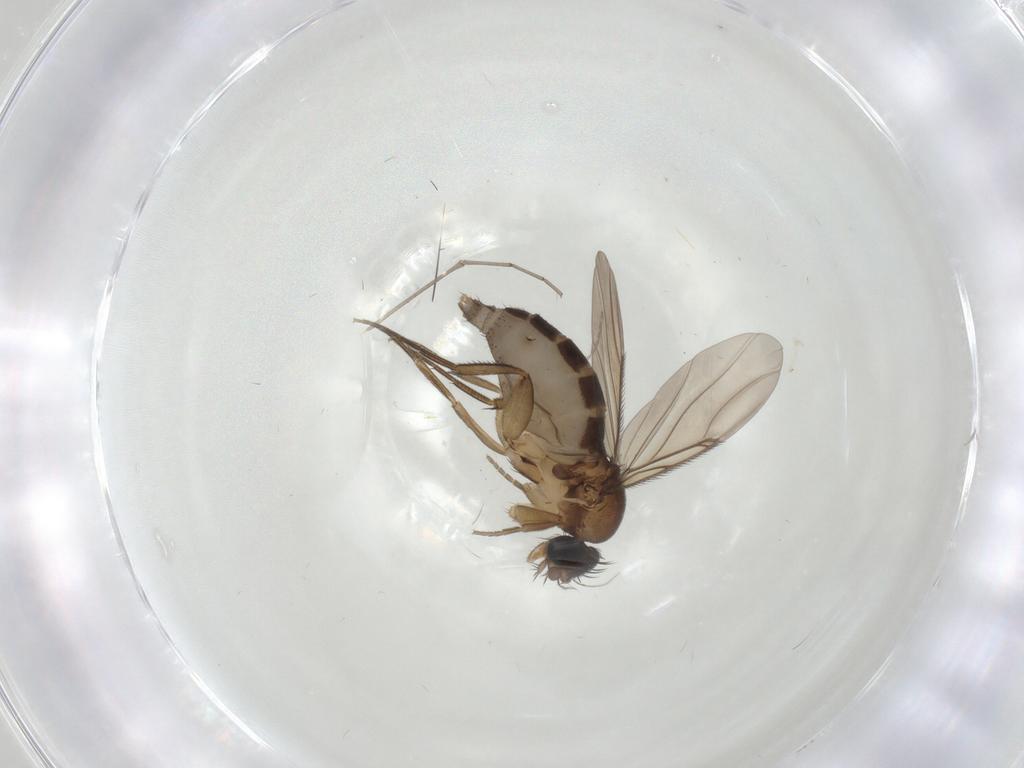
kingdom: Animalia
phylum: Arthropoda
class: Insecta
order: Diptera
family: Phoridae
